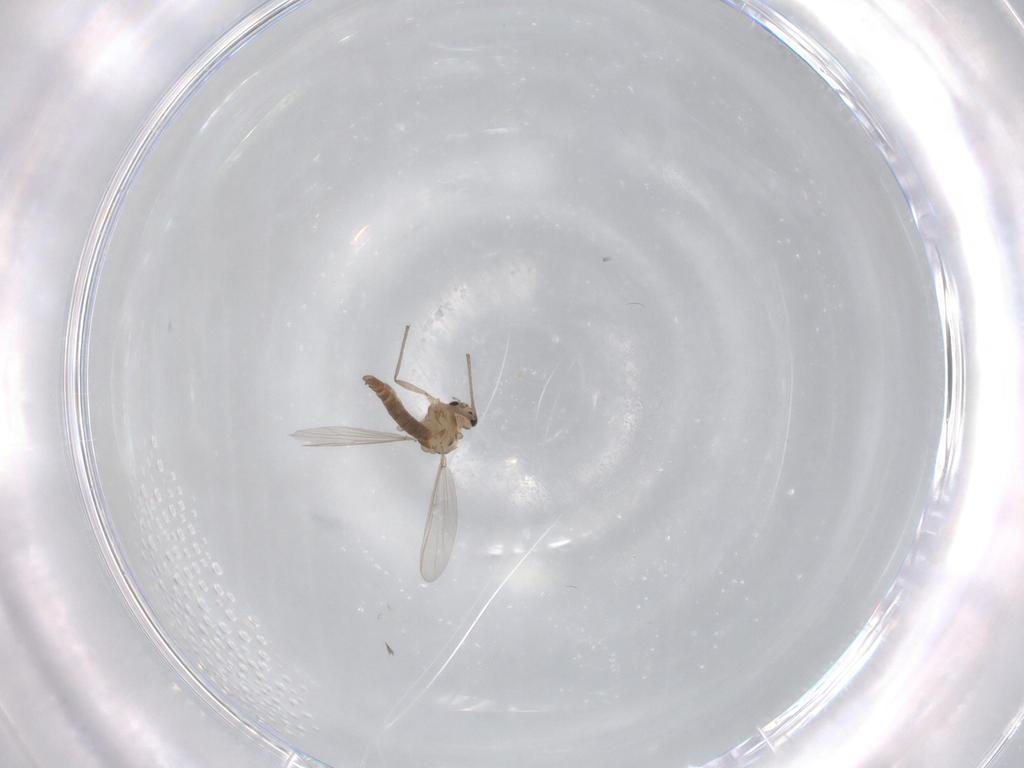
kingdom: Animalia
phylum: Arthropoda
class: Insecta
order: Diptera
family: Chironomidae
